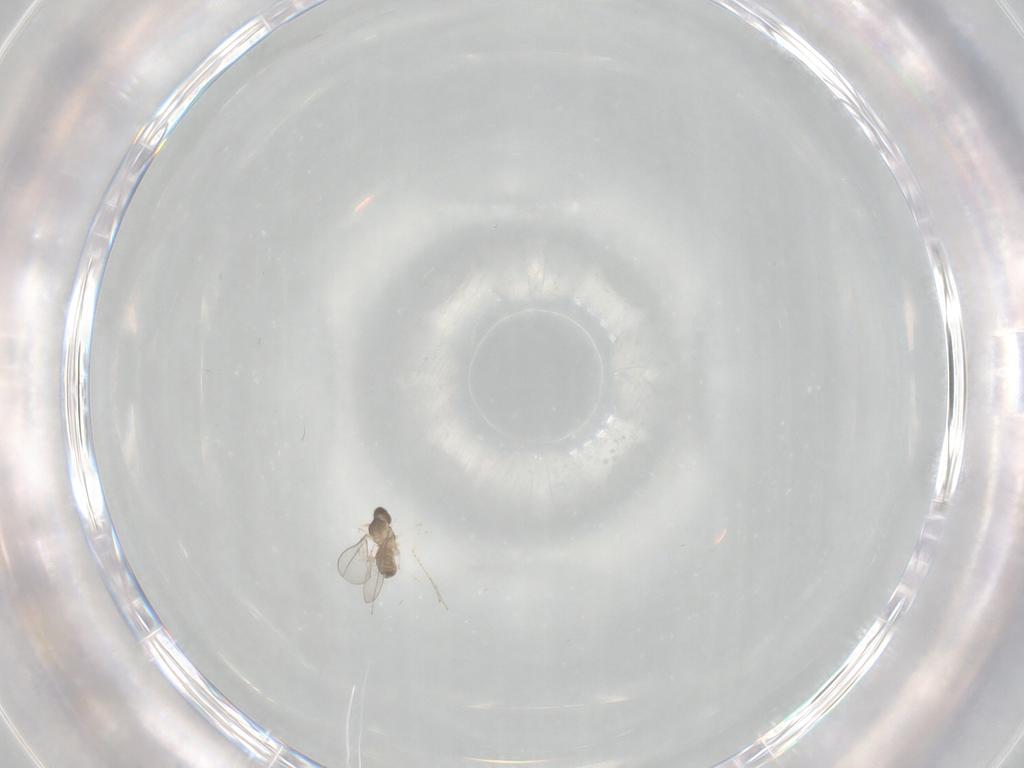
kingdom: Animalia
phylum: Arthropoda
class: Insecta
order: Diptera
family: Cecidomyiidae
